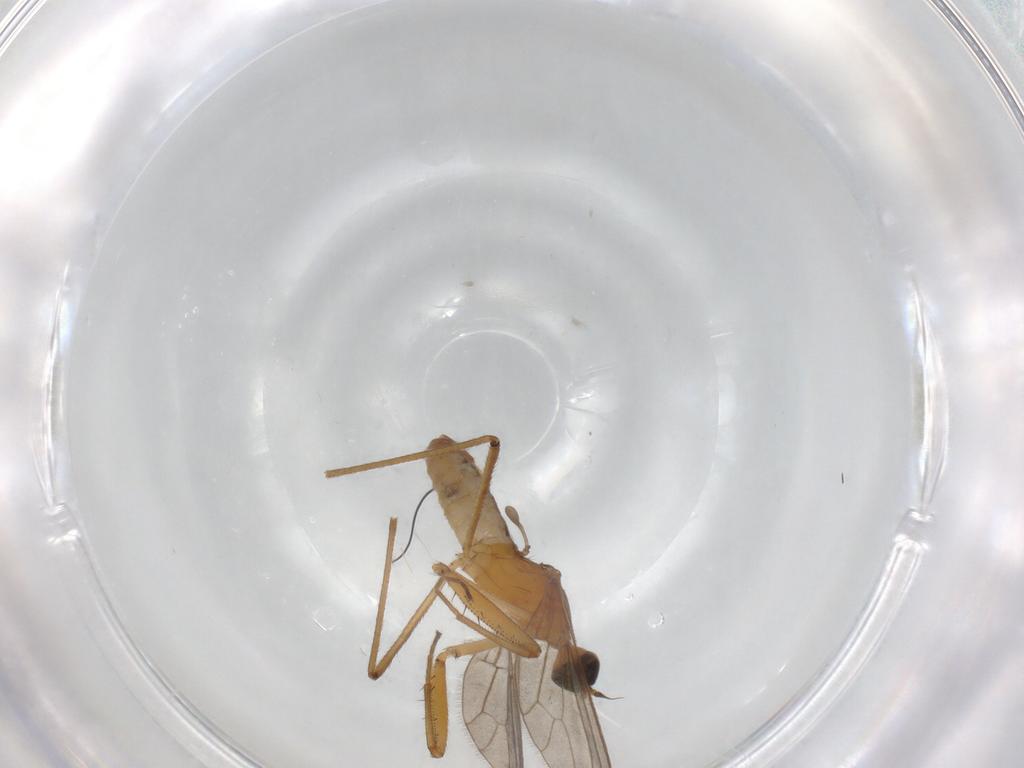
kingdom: Animalia
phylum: Arthropoda
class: Insecta
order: Diptera
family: Empididae
